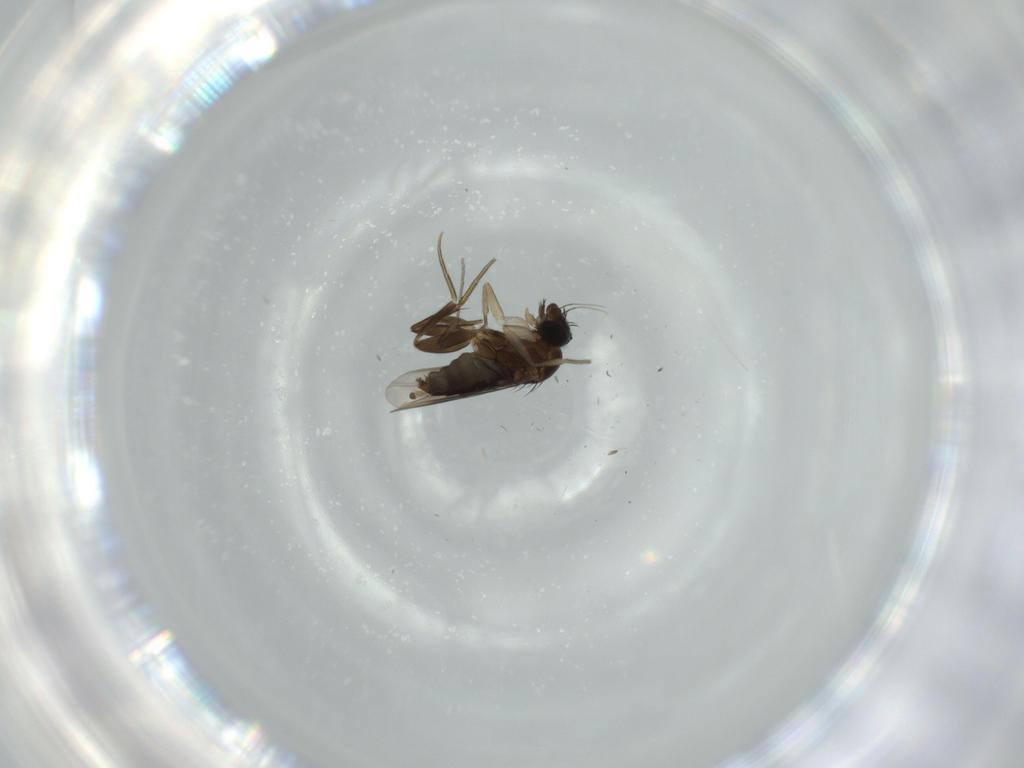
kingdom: Animalia
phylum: Arthropoda
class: Insecta
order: Diptera
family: Phoridae
